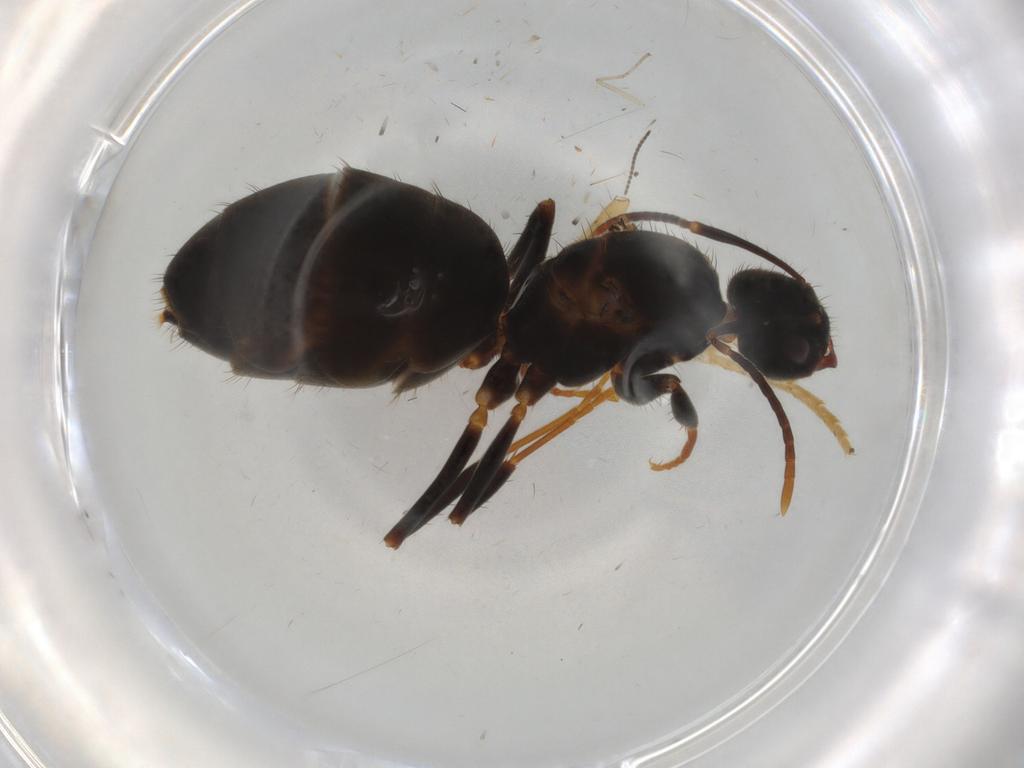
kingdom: Animalia
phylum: Arthropoda
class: Insecta
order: Hymenoptera
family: Formicidae
